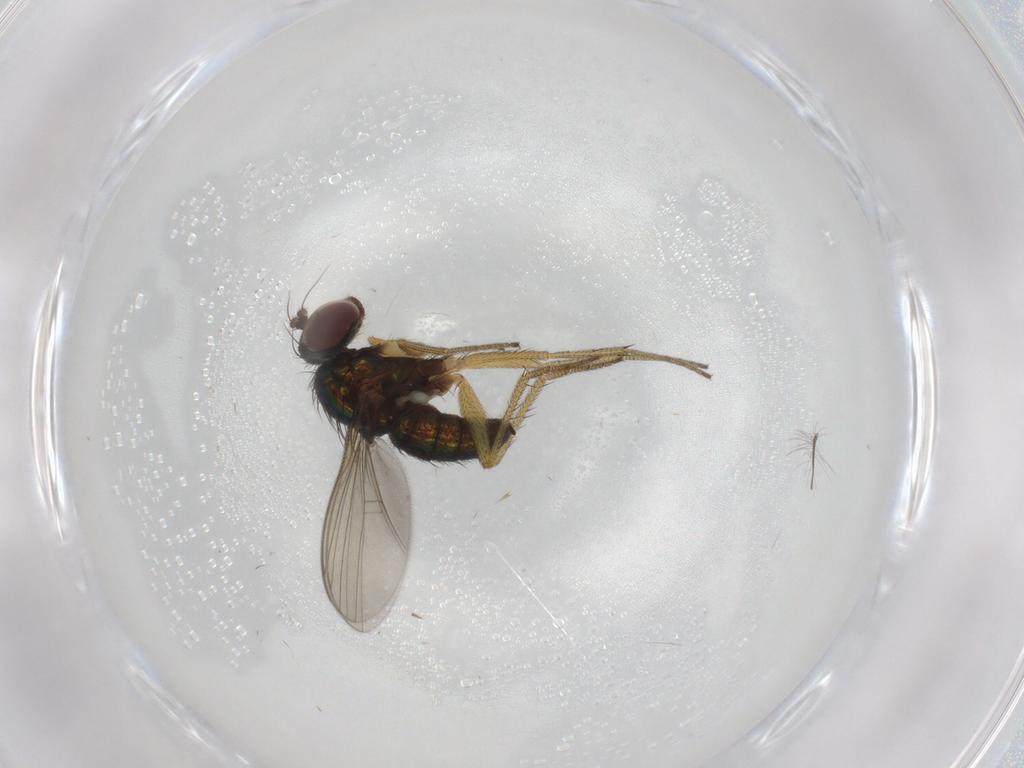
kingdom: Animalia
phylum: Arthropoda
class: Insecta
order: Diptera
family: Chironomidae
